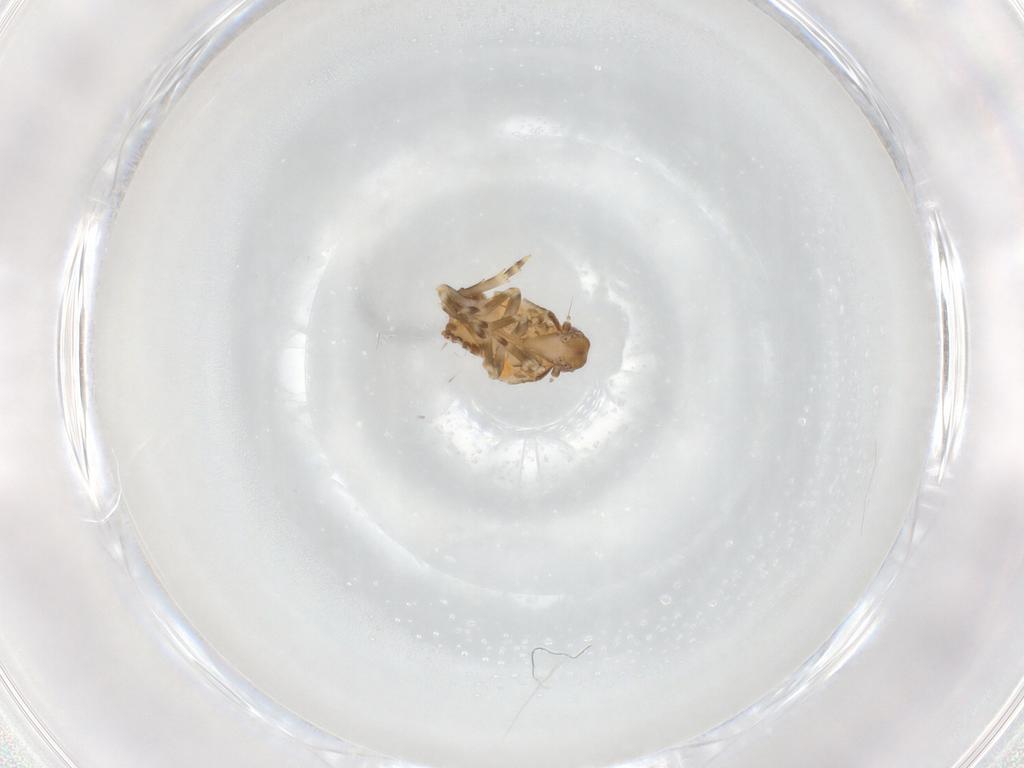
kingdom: Animalia
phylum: Arthropoda
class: Insecta
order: Hemiptera
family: Flatidae
